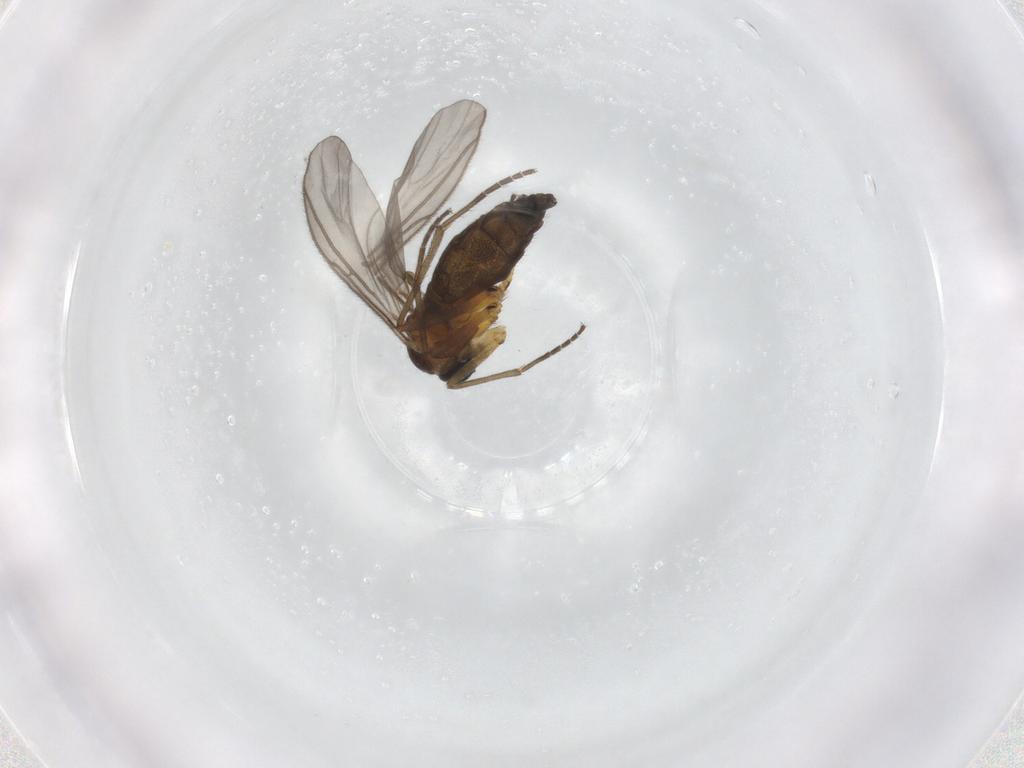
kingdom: Animalia
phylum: Arthropoda
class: Insecta
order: Diptera
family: Sciaridae
